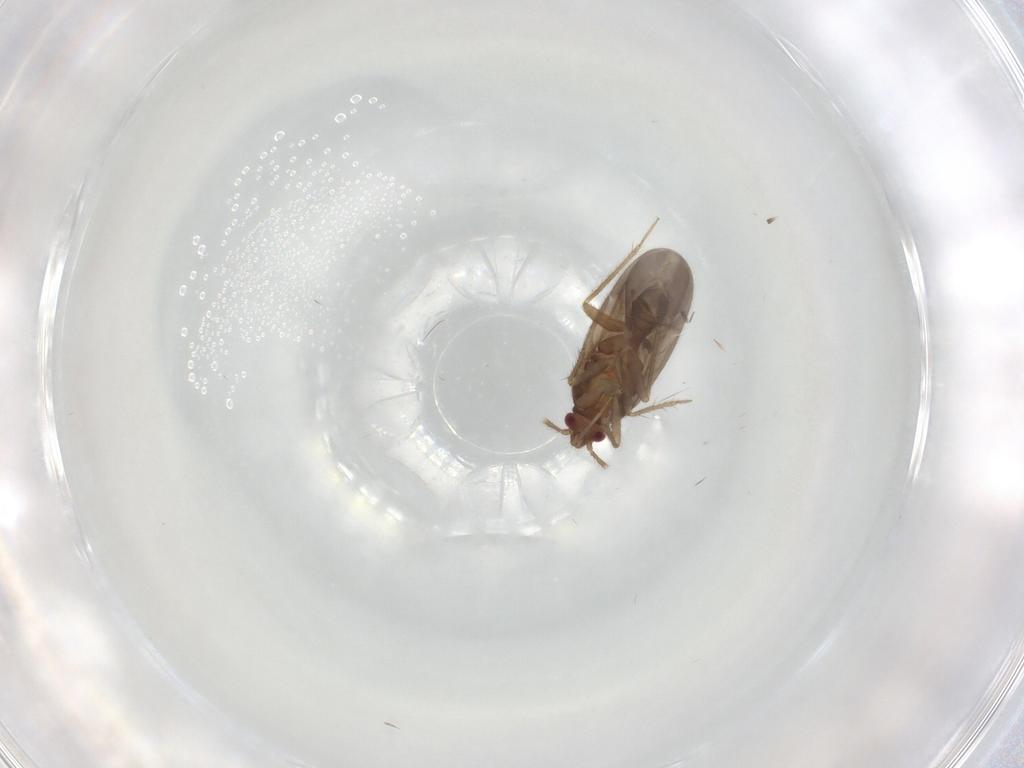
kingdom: Animalia
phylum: Arthropoda
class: Insecta
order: Hemiptera
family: Ceratocombidae
